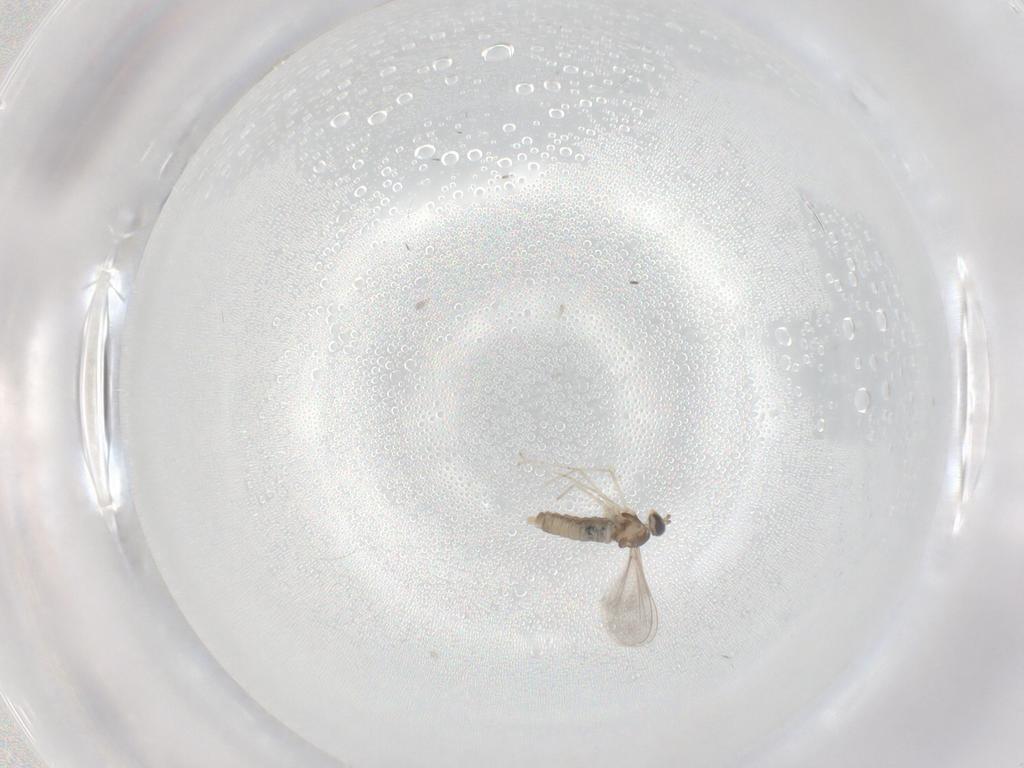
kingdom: Animalia
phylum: Arthropoda
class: Insecta
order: Diptera
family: Cecidomyiidae
